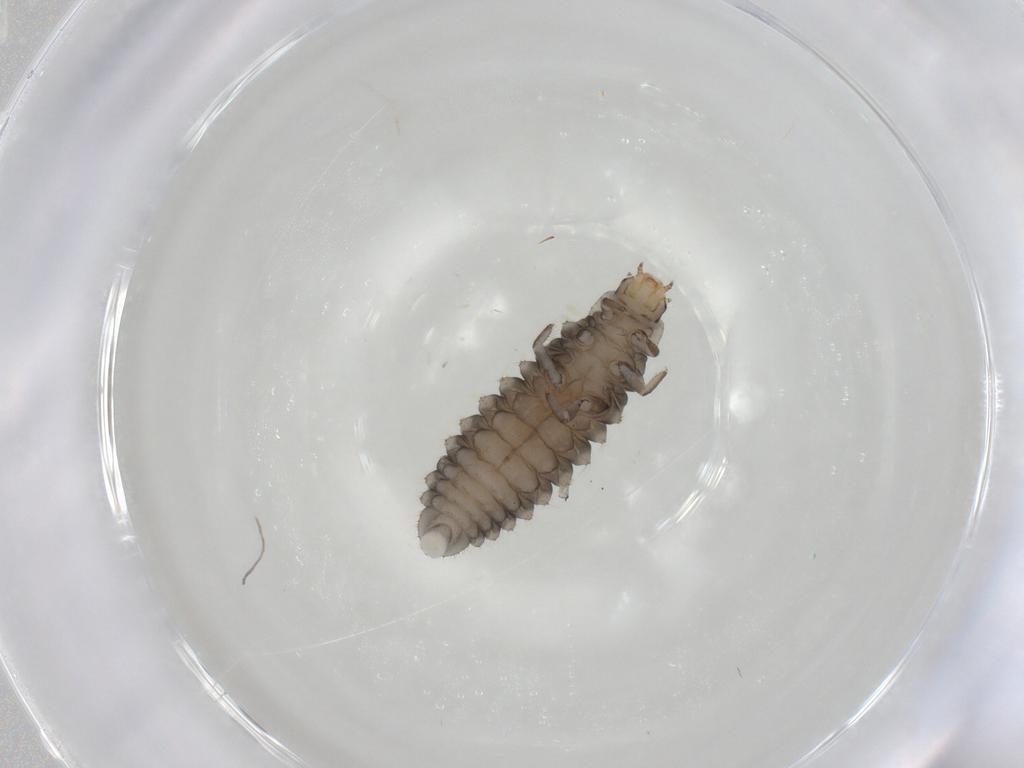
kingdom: Animalia
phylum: Arthropoda
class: Insecta
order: Coleoptera
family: Coccinellidae
